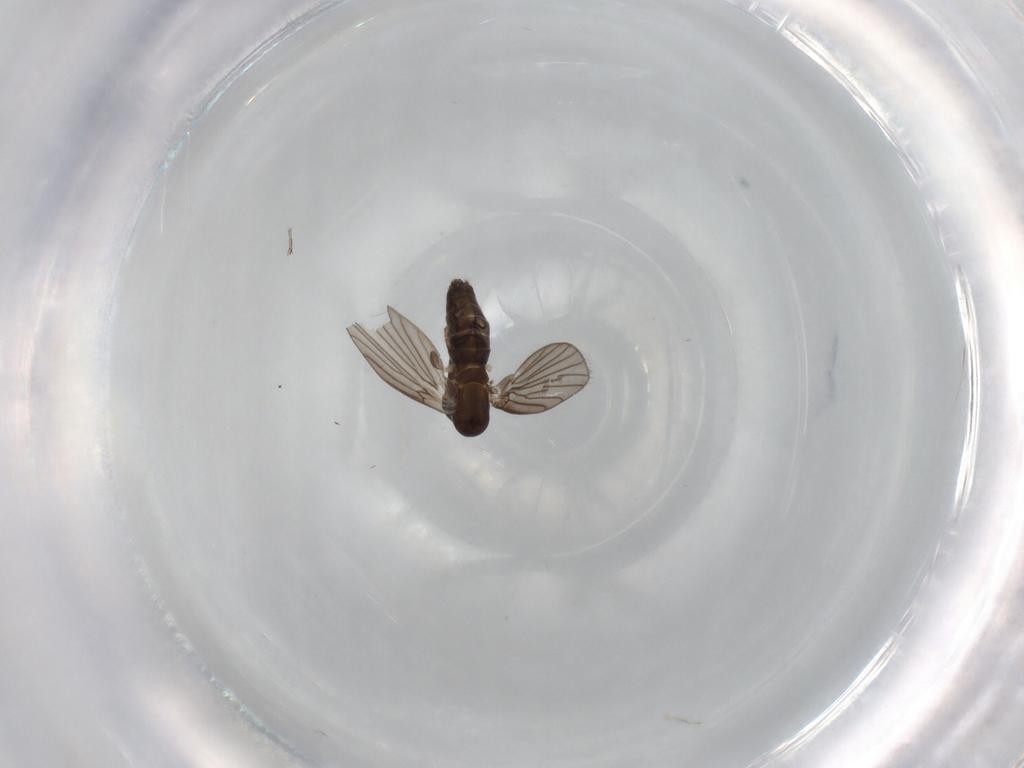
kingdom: Animalia
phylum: Arthropoda
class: Insecta
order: Diptera
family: Phoridae
